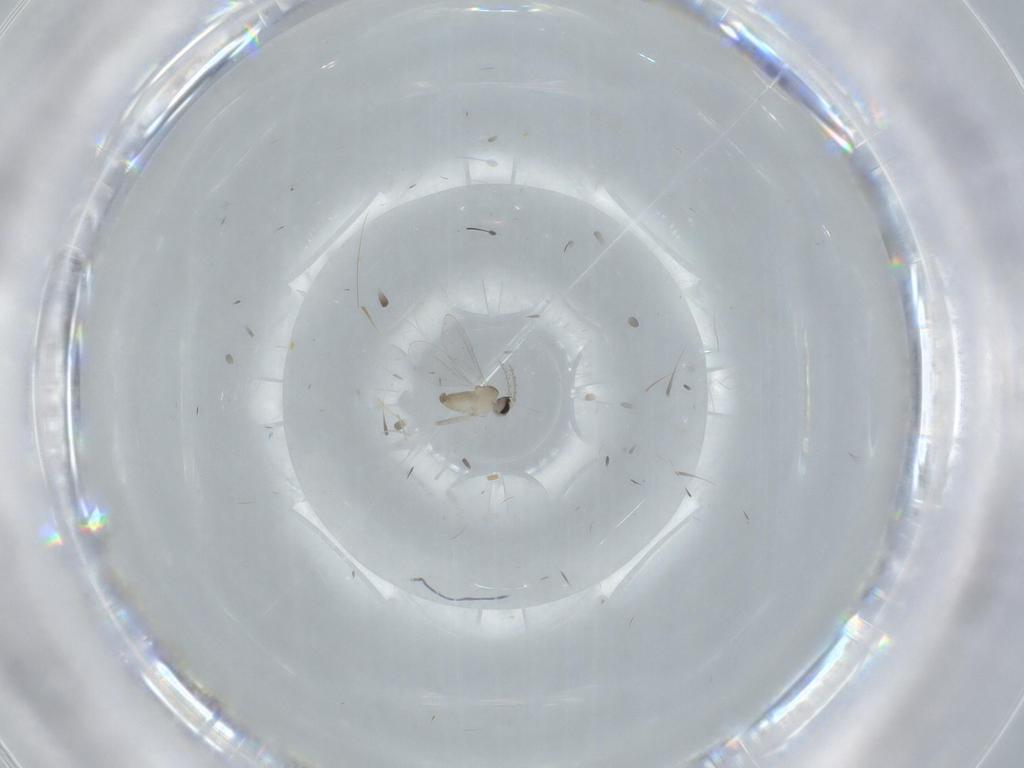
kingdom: Animalia
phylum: Arthropoda
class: Insecta
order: Diptera
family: Cecidomyiidae
